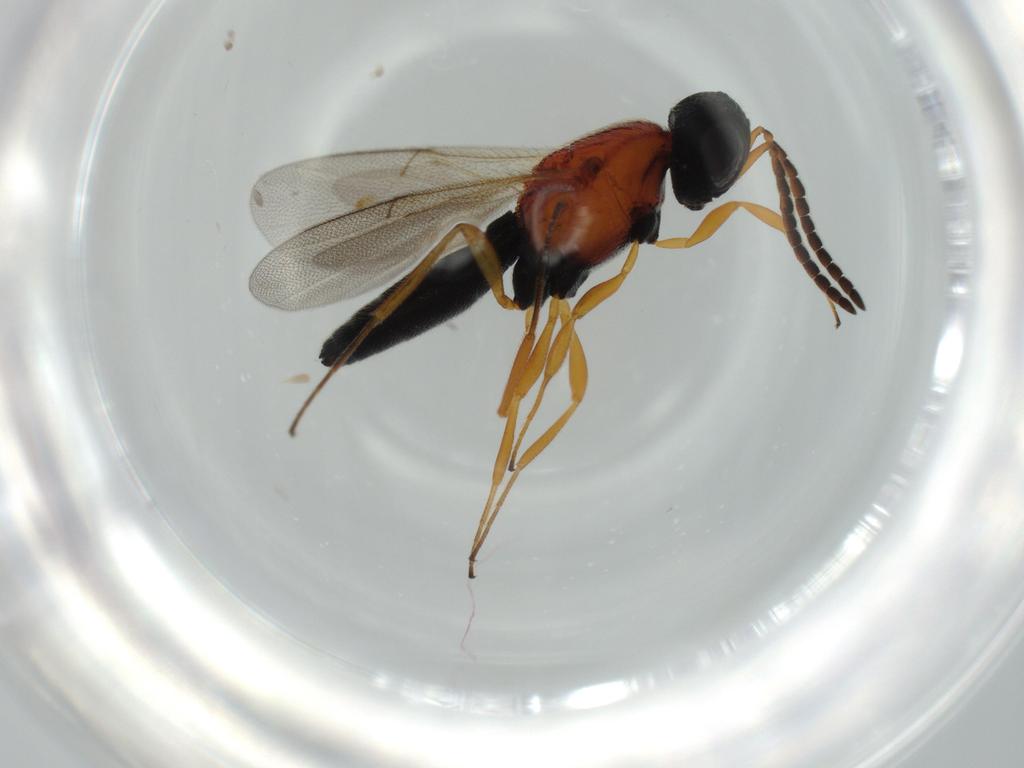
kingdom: Animalia
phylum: Arthropoda
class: Insecta
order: Hymenoptera
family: Scelionidae
